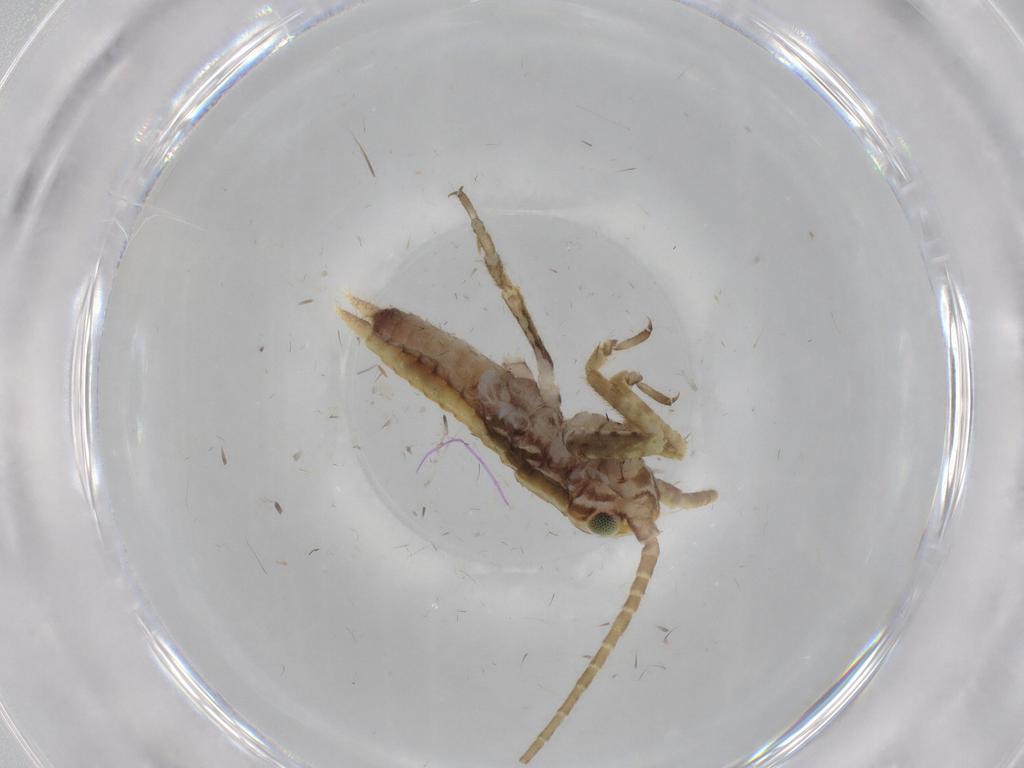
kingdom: Animalia
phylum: Arthropoda
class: Insecta
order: Orthoptera
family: Gryllidae
